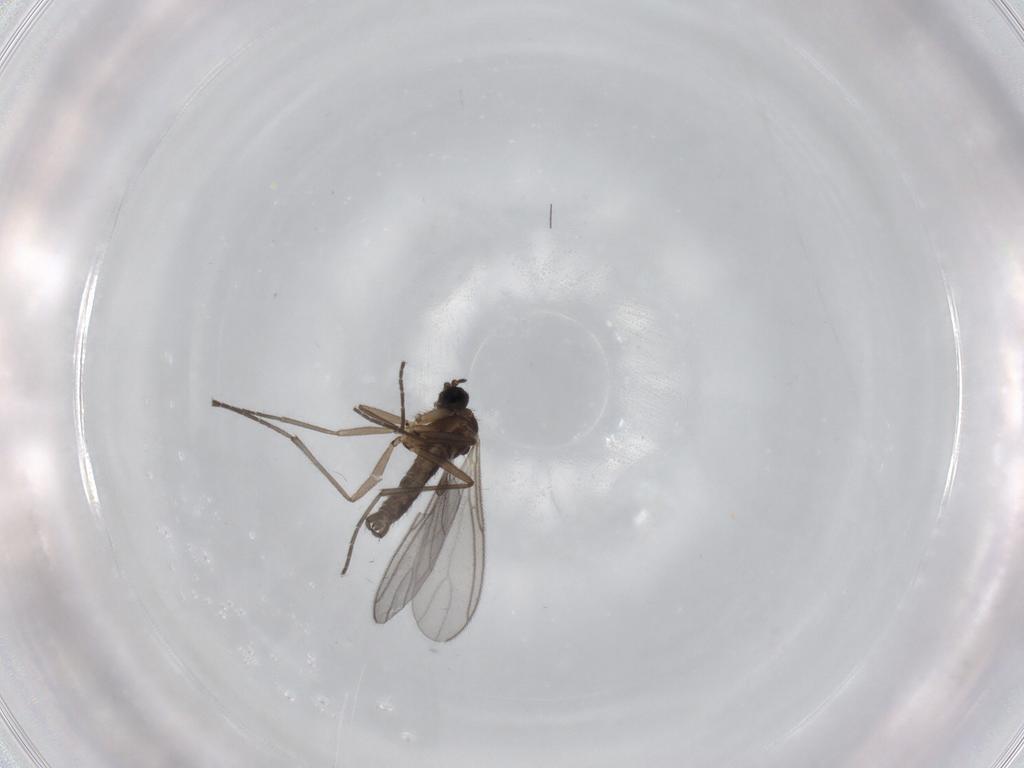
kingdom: Animalia
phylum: Arthropoda
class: Insecta
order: Diptera
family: Sciaridae
